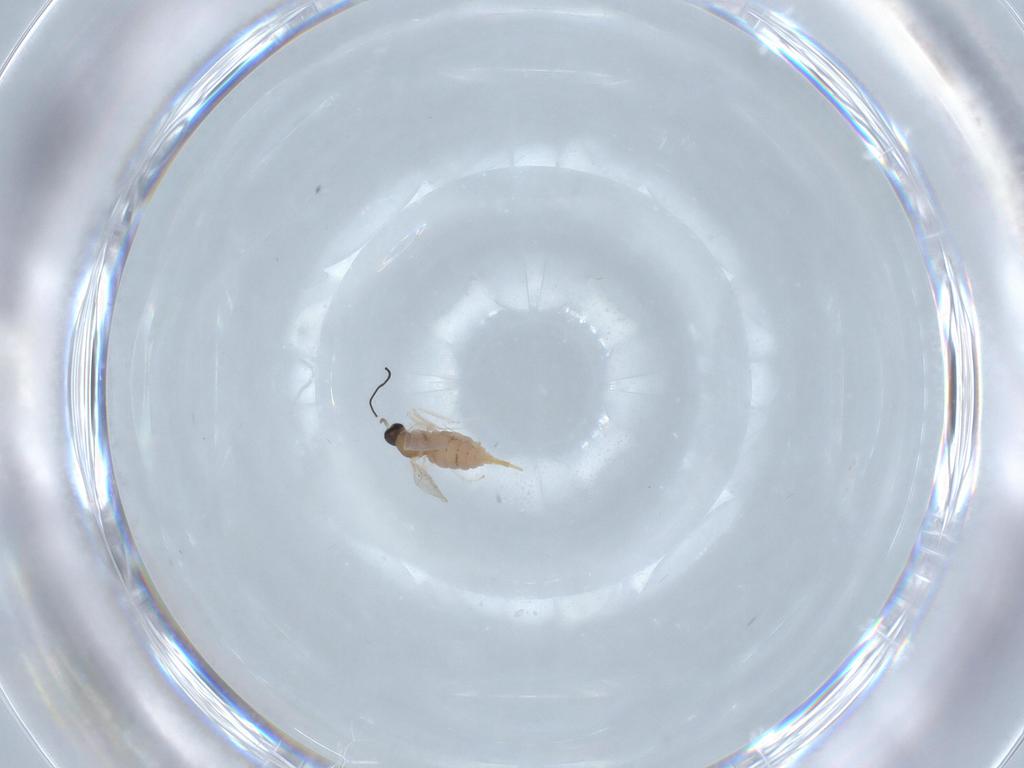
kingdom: Animalia
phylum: Arthropoda
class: Insecta
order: Diptera
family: Cecidomyiidae
